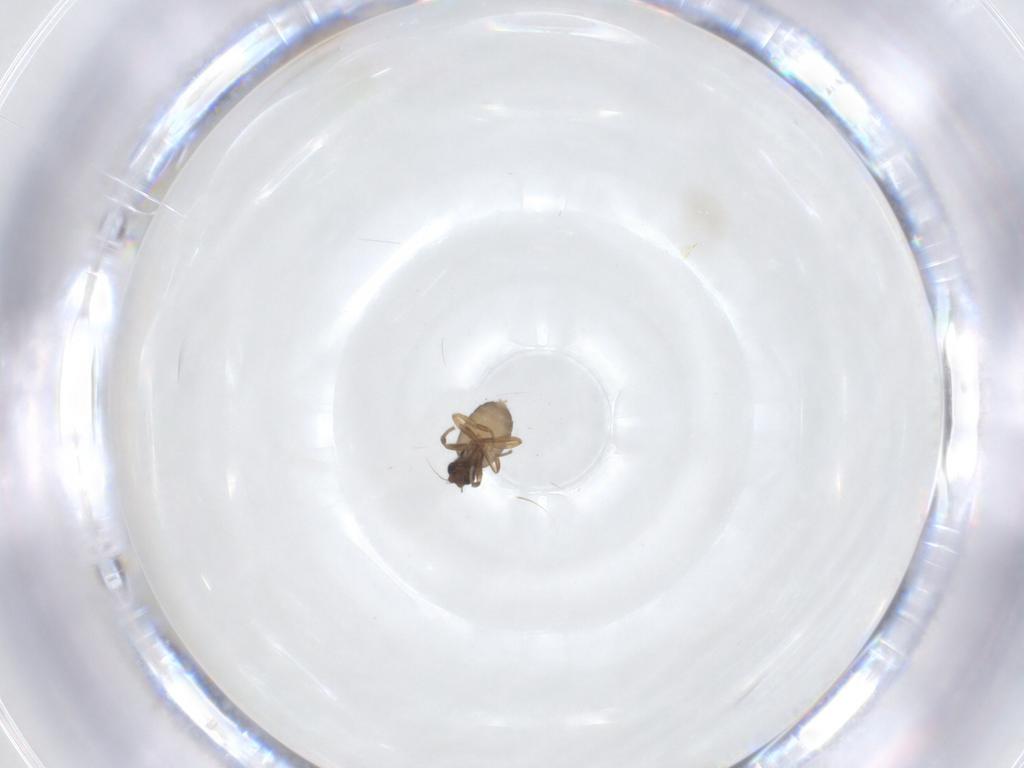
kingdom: Animalia
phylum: Arthropoda
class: Insecta
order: Diptera
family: Phoridae
